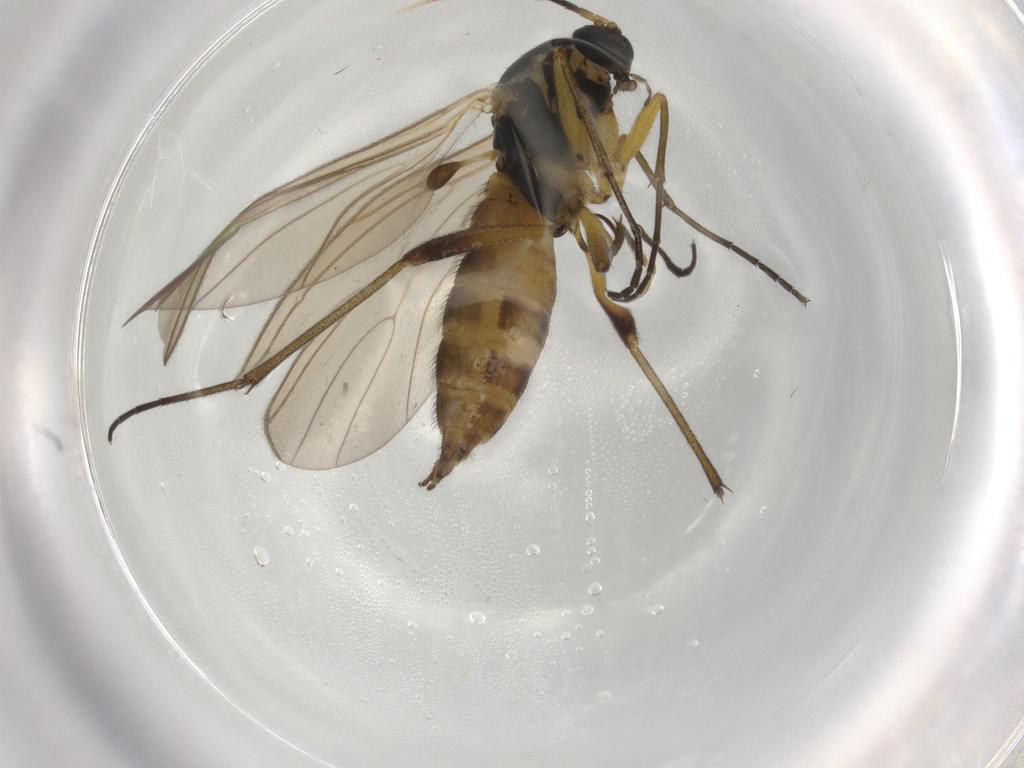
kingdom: Animalia
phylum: Arthropoda
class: Insecta
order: Diptera
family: Sciaridae
